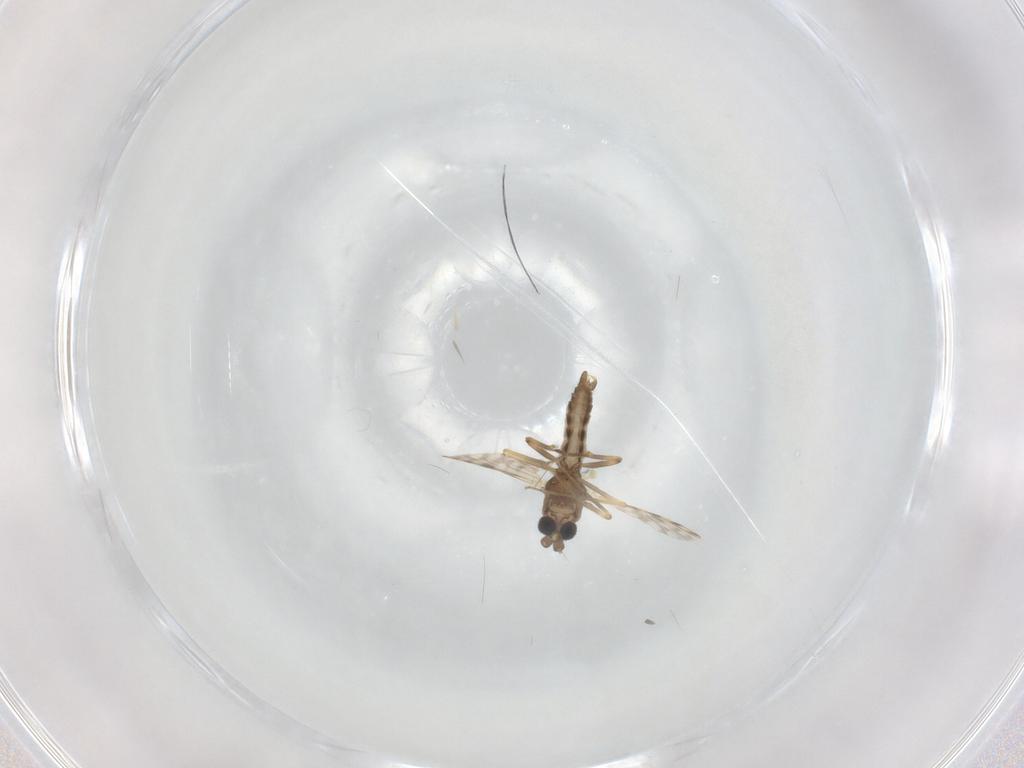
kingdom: Animalia
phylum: Arthropoda
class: Insecta
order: Diptera
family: Ceratopogonidae
